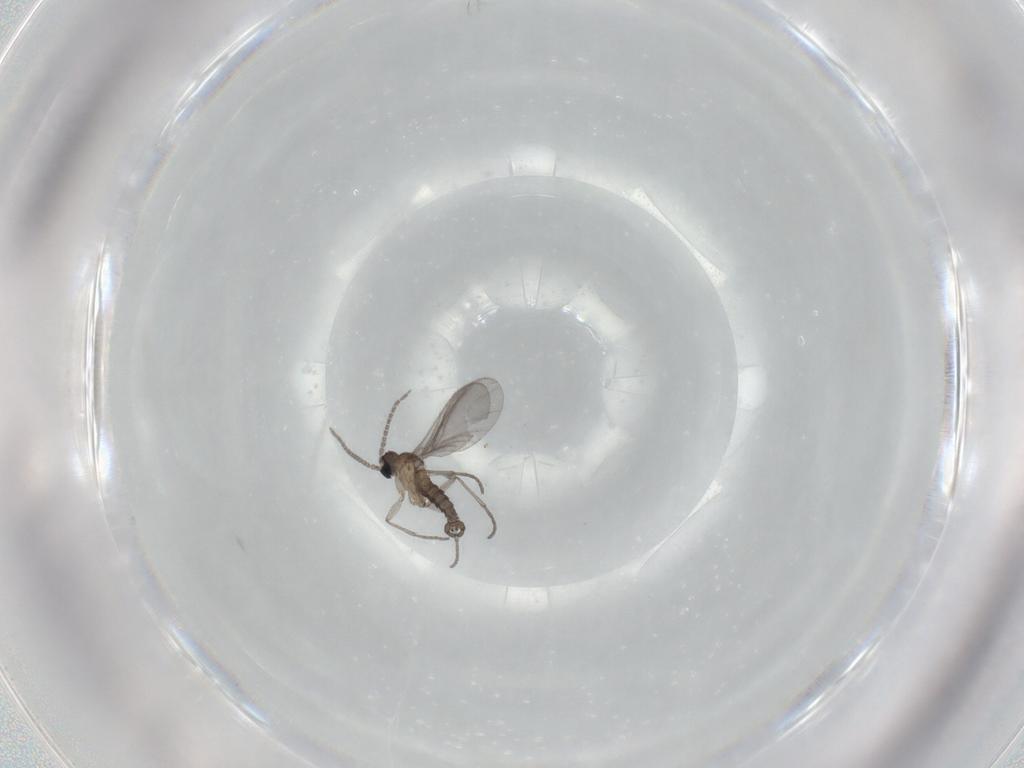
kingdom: Animalia
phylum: Arthropoda
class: Insecta
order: Diptera
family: Sciaridae
